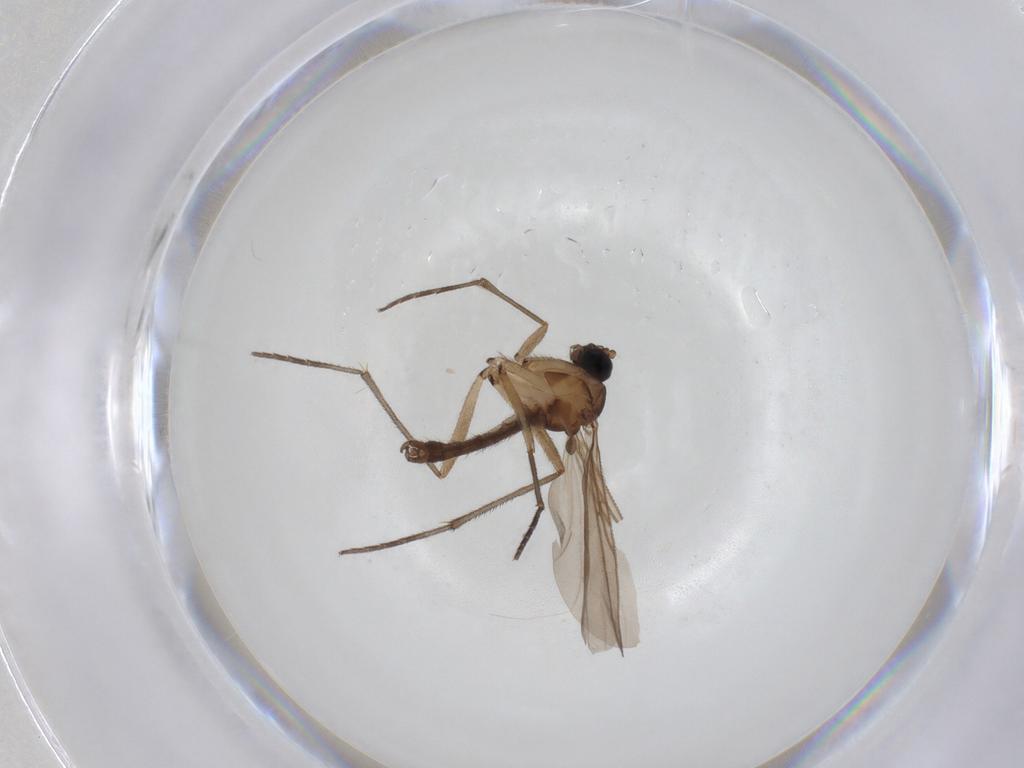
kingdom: Animalia
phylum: Arthropoda
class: Insecta
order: Diptera
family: Sciaridae
